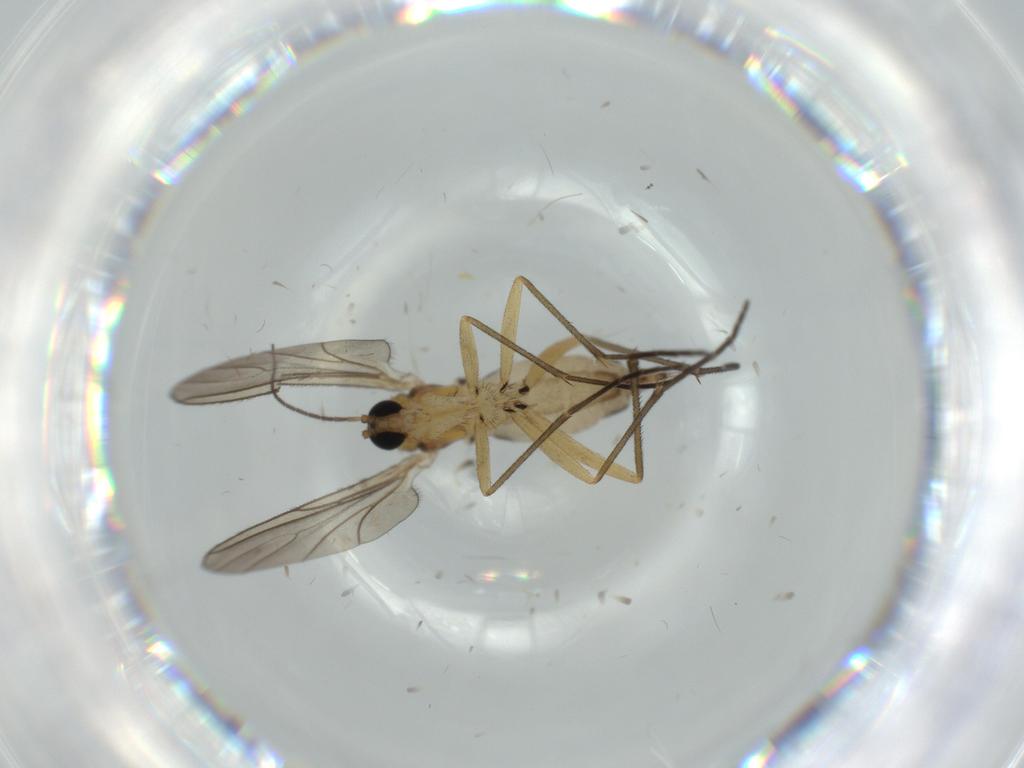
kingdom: Animalia
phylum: Arthropoda
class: Insecta
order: Diptera
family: Sciaridae
